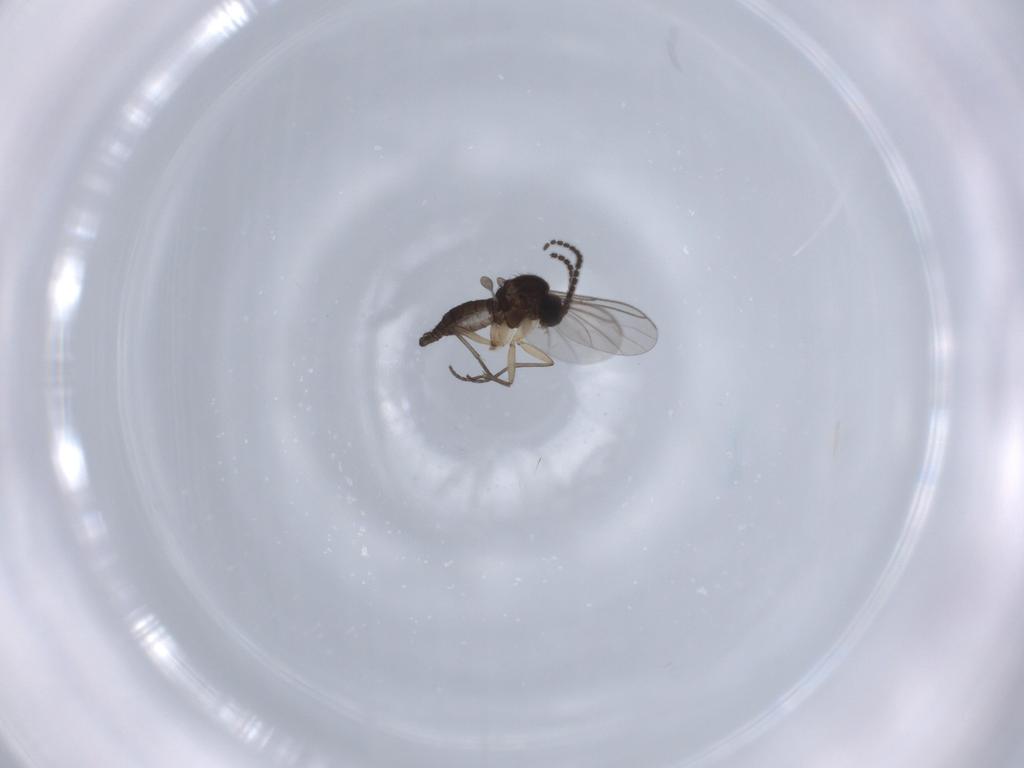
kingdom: Animalia
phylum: Arthropoda
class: Insecta
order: Diptera
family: Sciaridae
